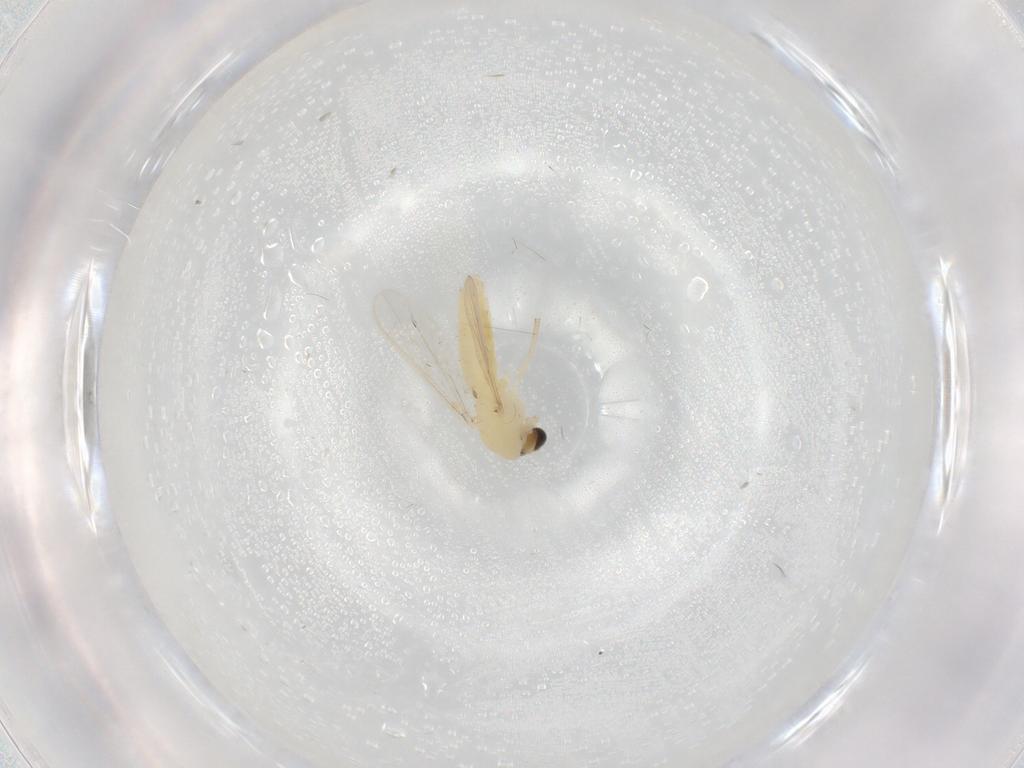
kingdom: Animalia
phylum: Arthropoda
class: Insecta
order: Diptera
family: Chironomidae
